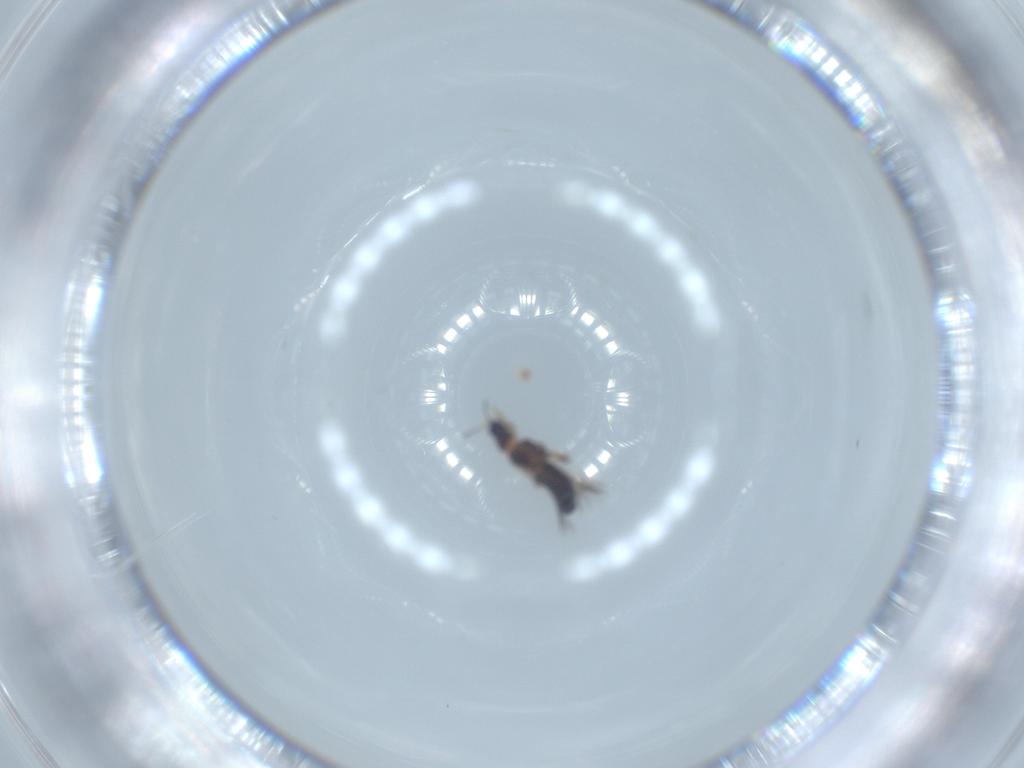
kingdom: Animalia
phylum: Arthropoda
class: Insecta
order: Thysanoptera
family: Thripidae
